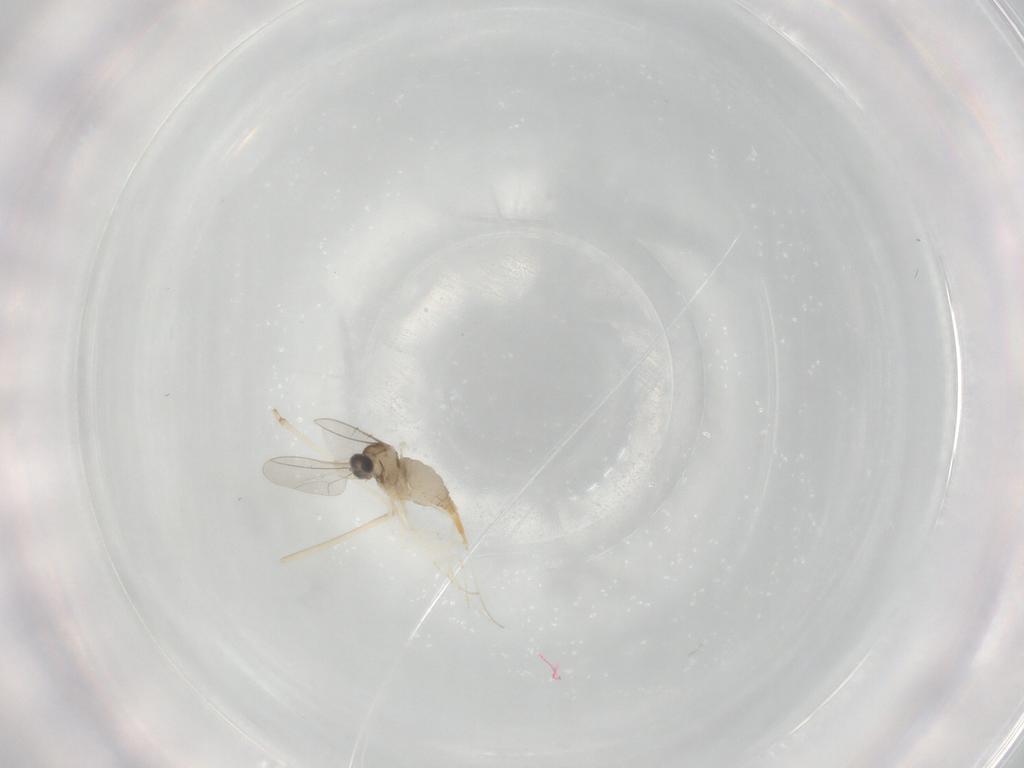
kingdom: Animalia
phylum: Arthropoda
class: Insecta
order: Diptera
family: Cecidomyiidae
